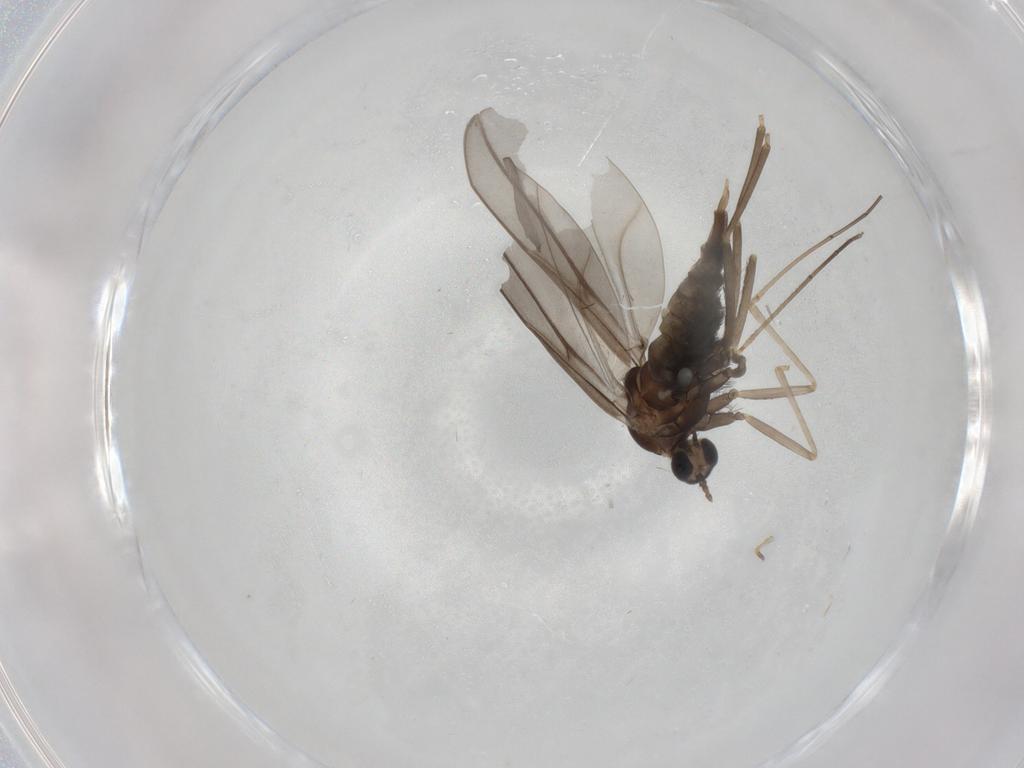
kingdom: Animalia
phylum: Arthropoda
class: Insecta
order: Diptera
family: Cecidomyiidae
